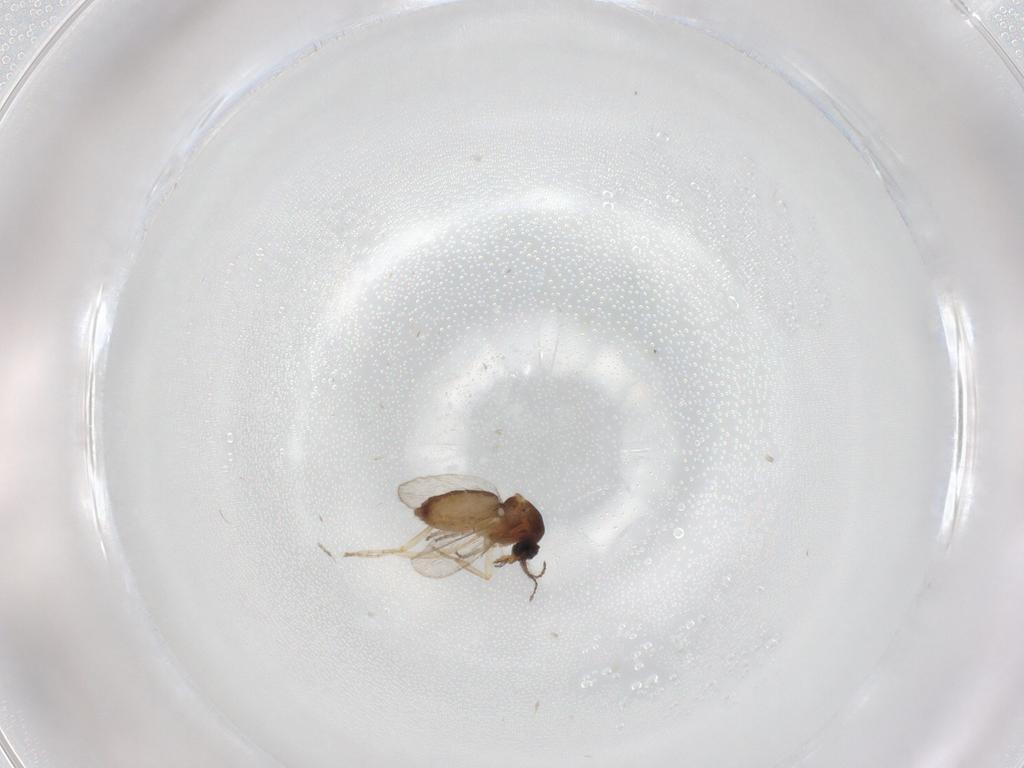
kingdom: Animalia
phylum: Arthropoda
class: Insecta
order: Diptera
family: Ceratopogonidae
